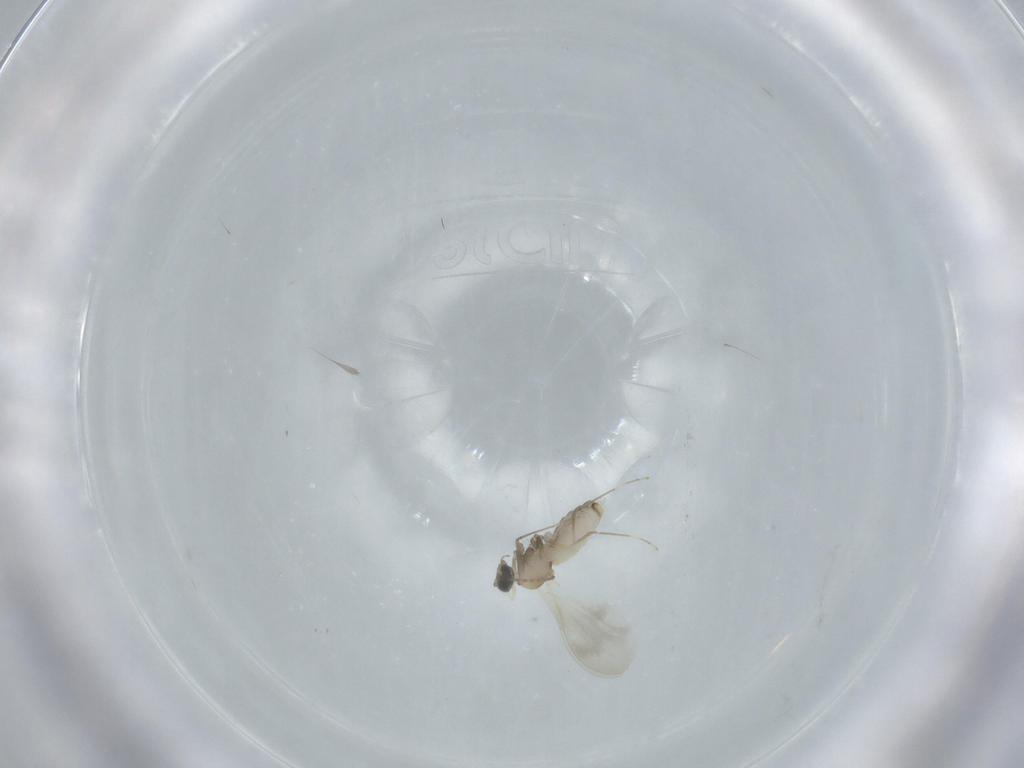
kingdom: Animalia
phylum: Arthropoda
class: Insecta
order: Diptera
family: Cecidomyiidae
